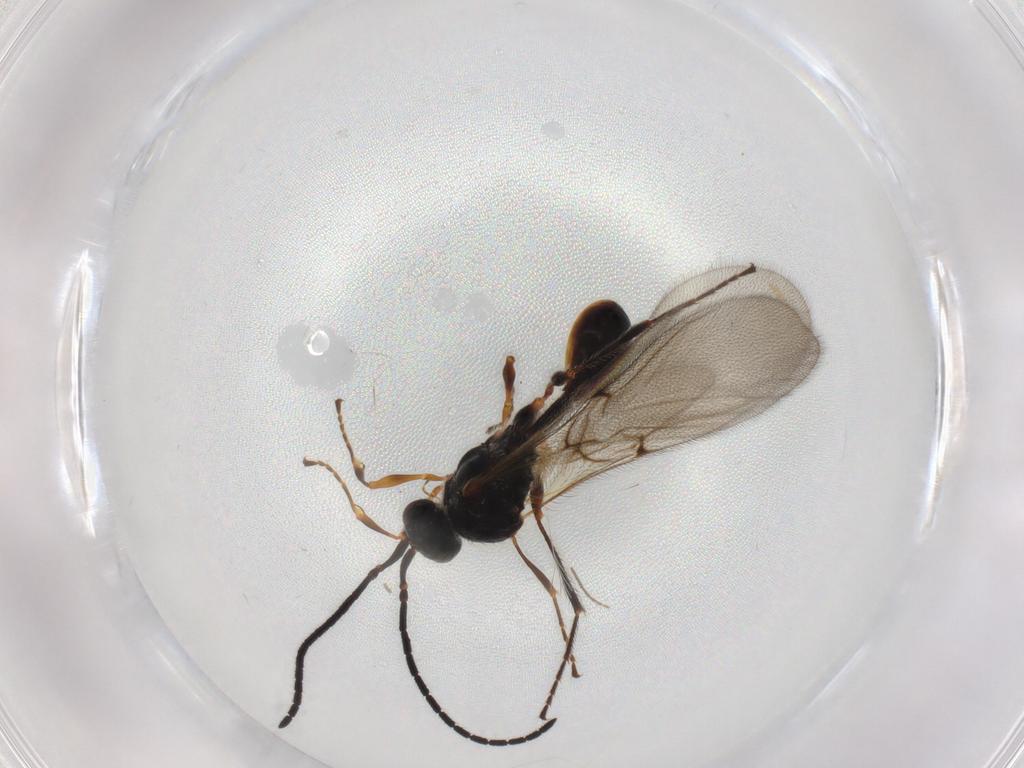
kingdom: Animalia
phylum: Arthropoda
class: Insecta
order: Hymenoptera
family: Diapriidae
